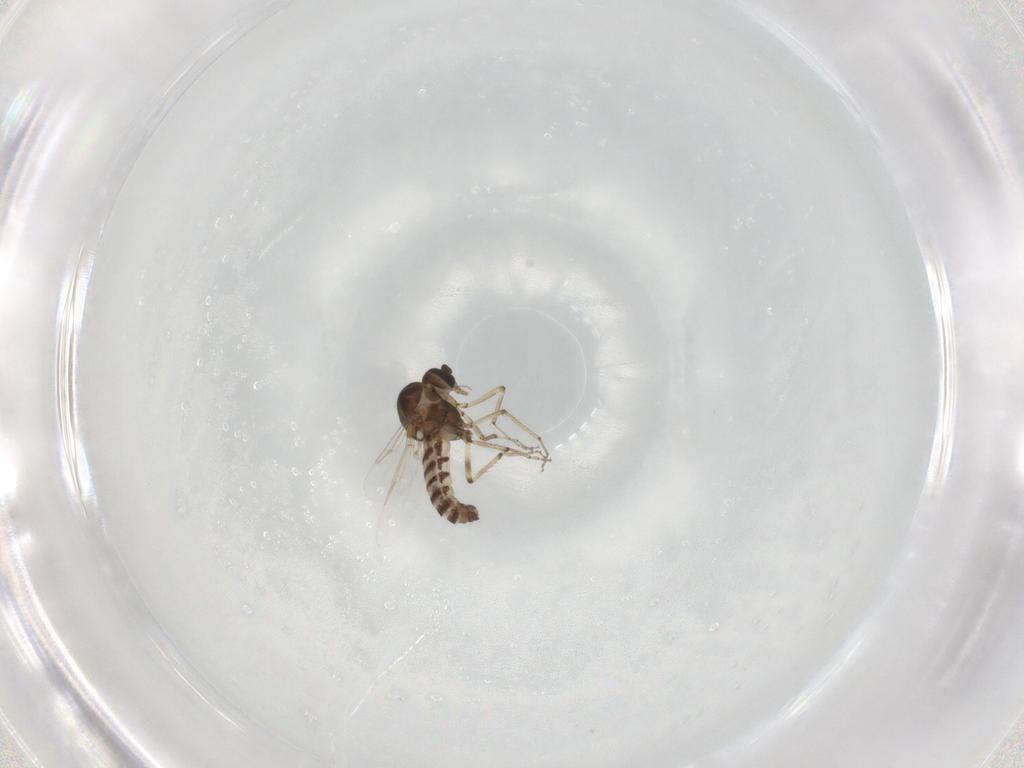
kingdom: Animalia
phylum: Arthropoda
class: Insecta
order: Diptera
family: Ceratopogonidae
